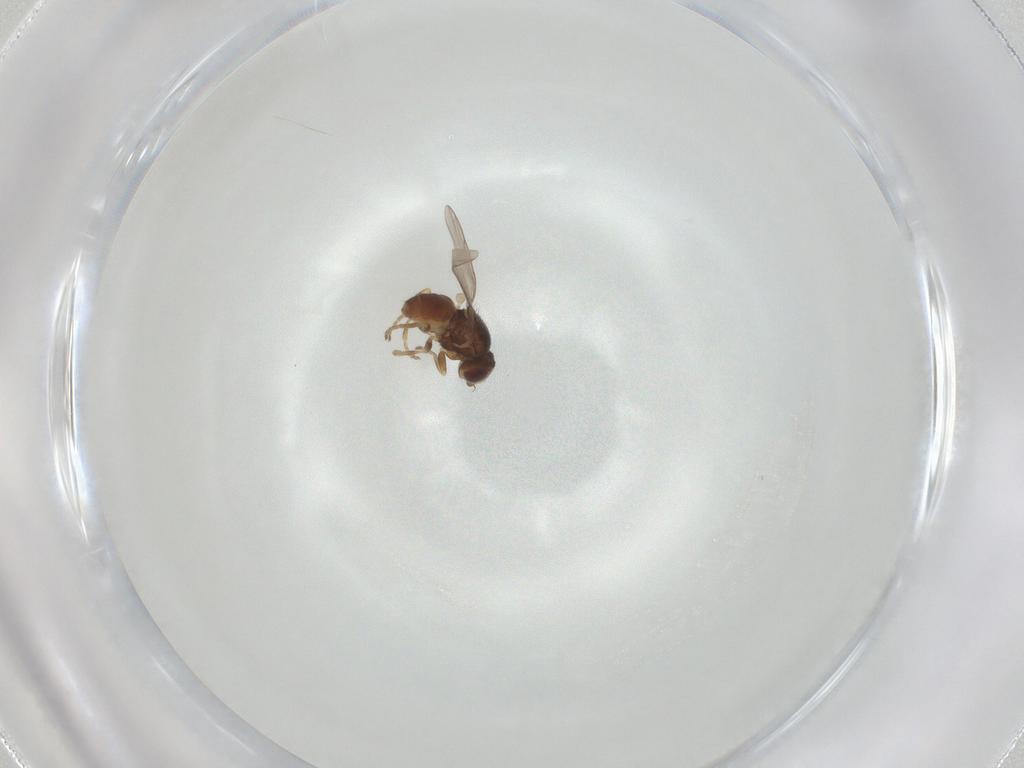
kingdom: Animalia
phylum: Arthropoda
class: Insecta
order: Diptera
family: Chloropidae
